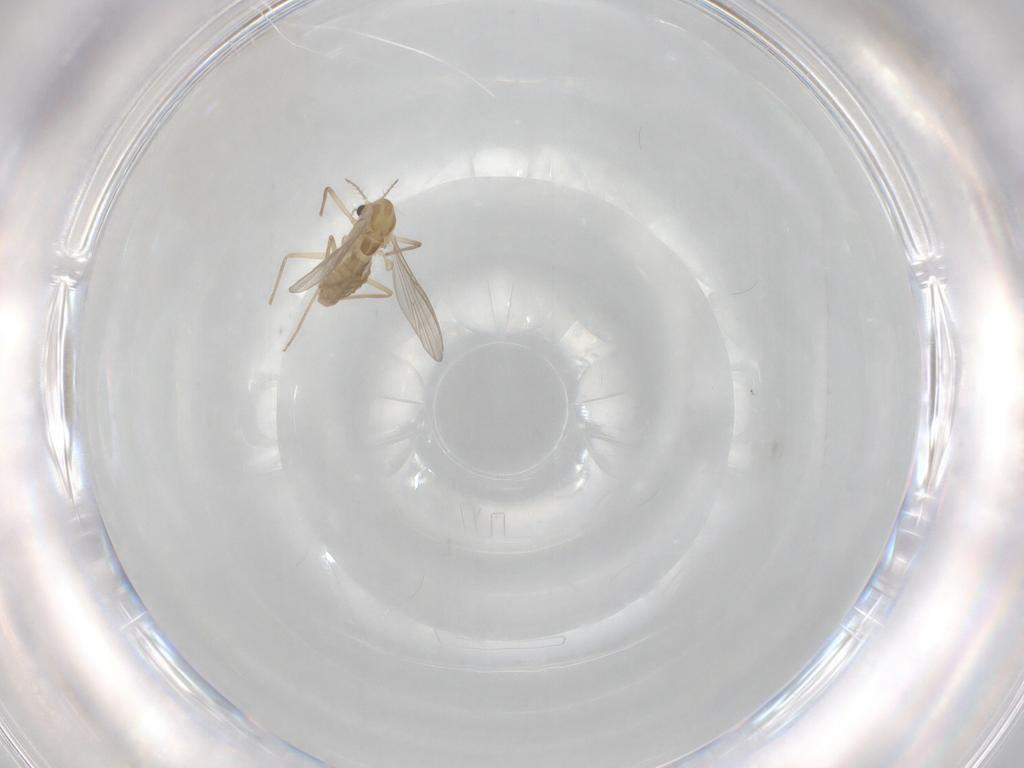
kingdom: Animalia
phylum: Arthropoda
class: Insecta
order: Diptera
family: Chironomidae
